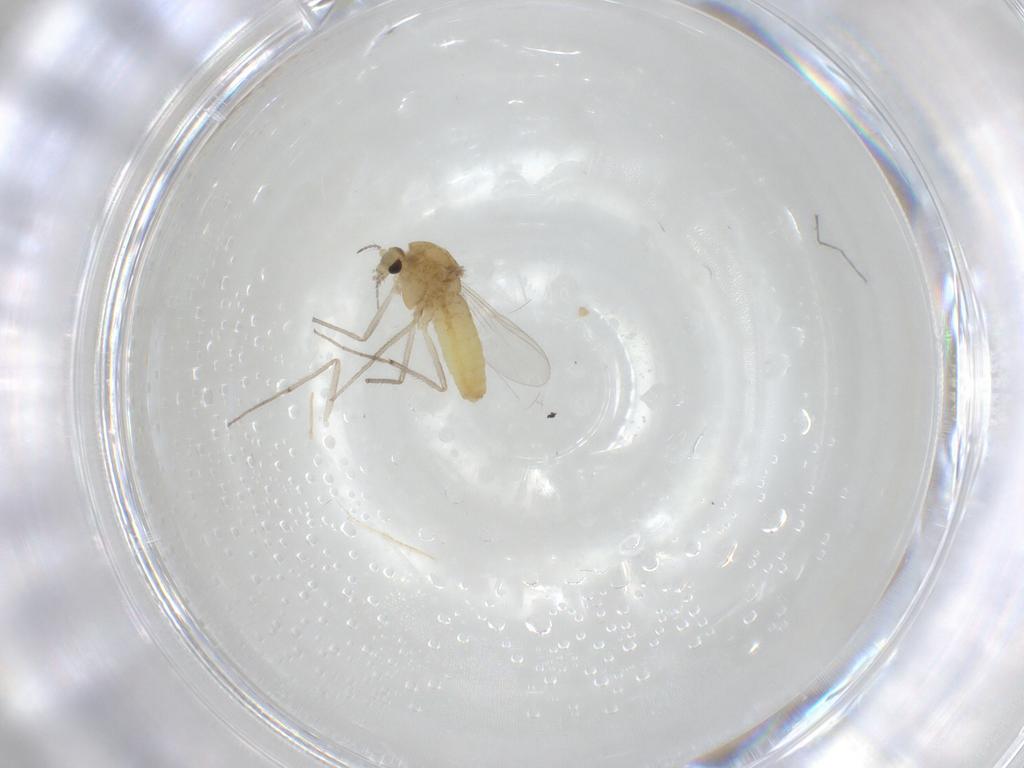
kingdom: Animalia
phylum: Arthropoda
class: Insecta
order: Diptera
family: Chironomidae
